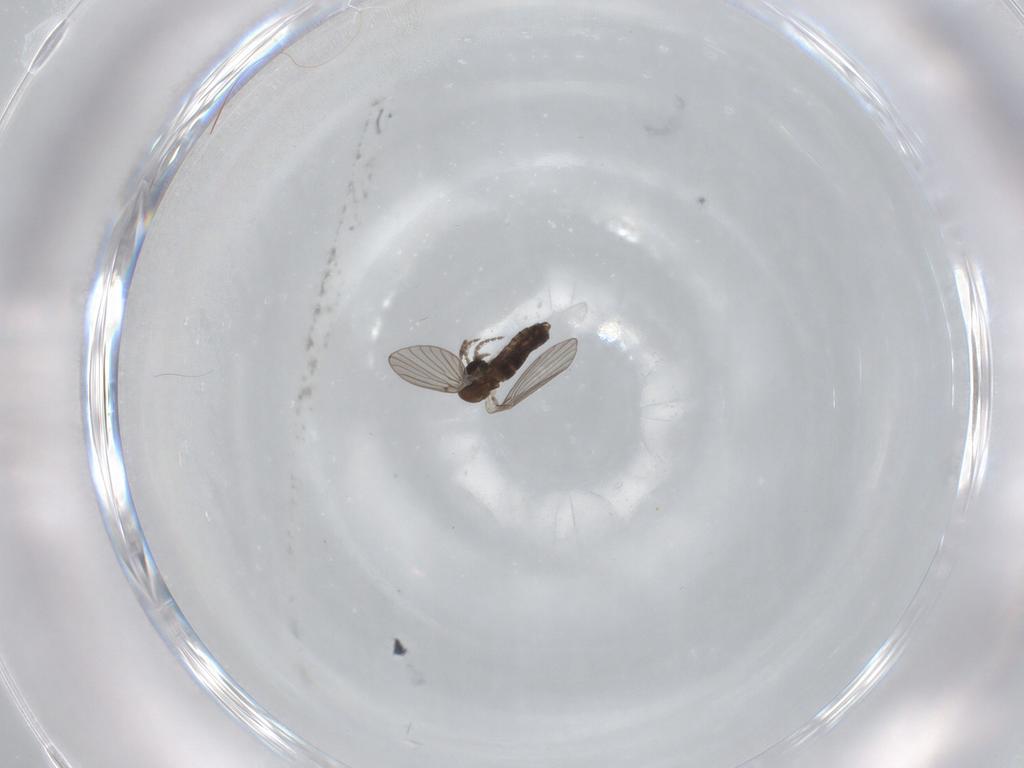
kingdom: Animalia
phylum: Arthropoda
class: Insecta
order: Diptera
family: Cecidomyiidae
